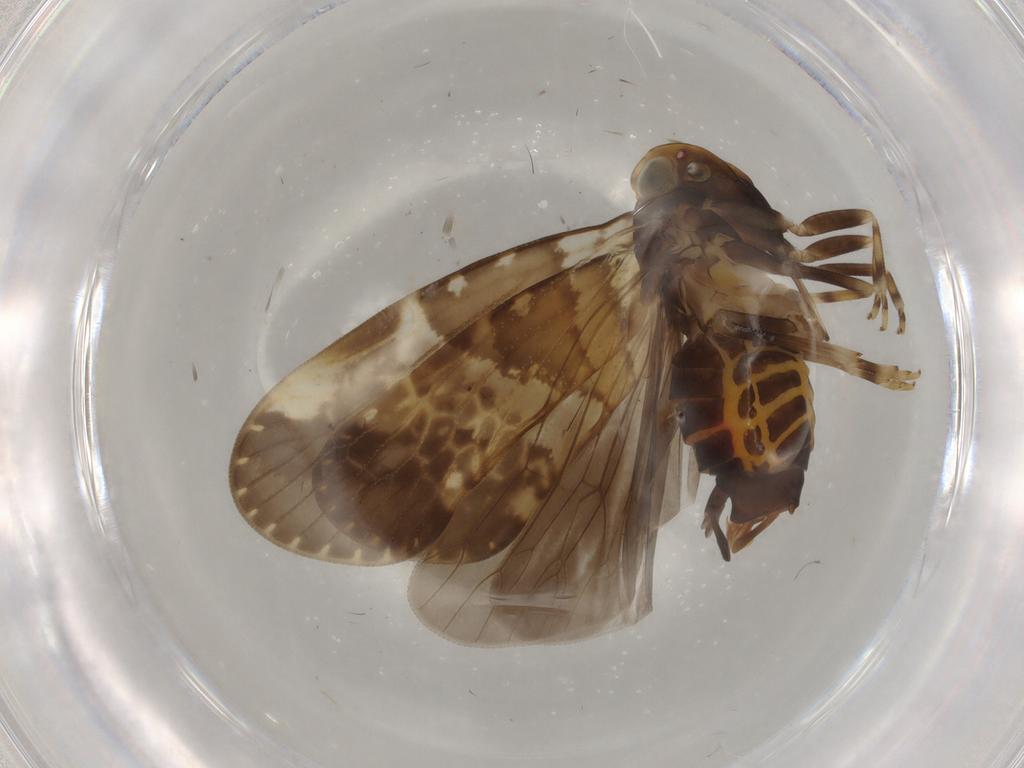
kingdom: Animalia
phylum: Arthropoda
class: Insecta
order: Hemiptera
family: Cixiidae
